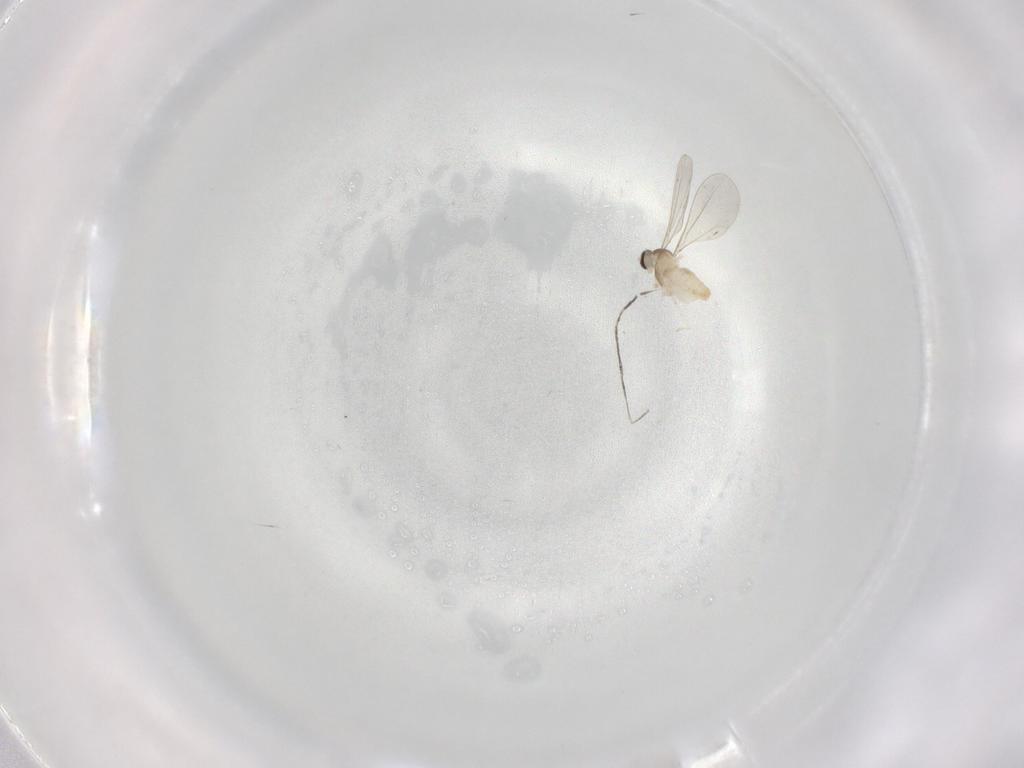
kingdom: Animalia
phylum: Arthropoda
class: Insecta
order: Diptera
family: Cecidomyiidae
